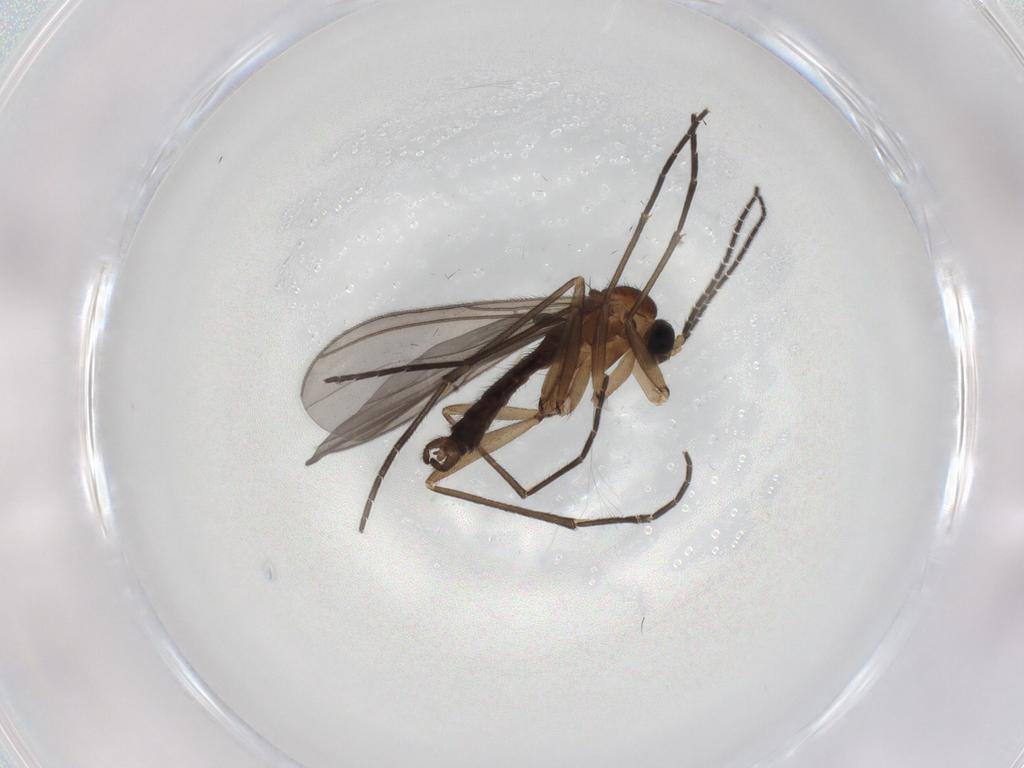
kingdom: Animalia
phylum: Arthropoda
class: Insecta
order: Diptera
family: Sciaridae
